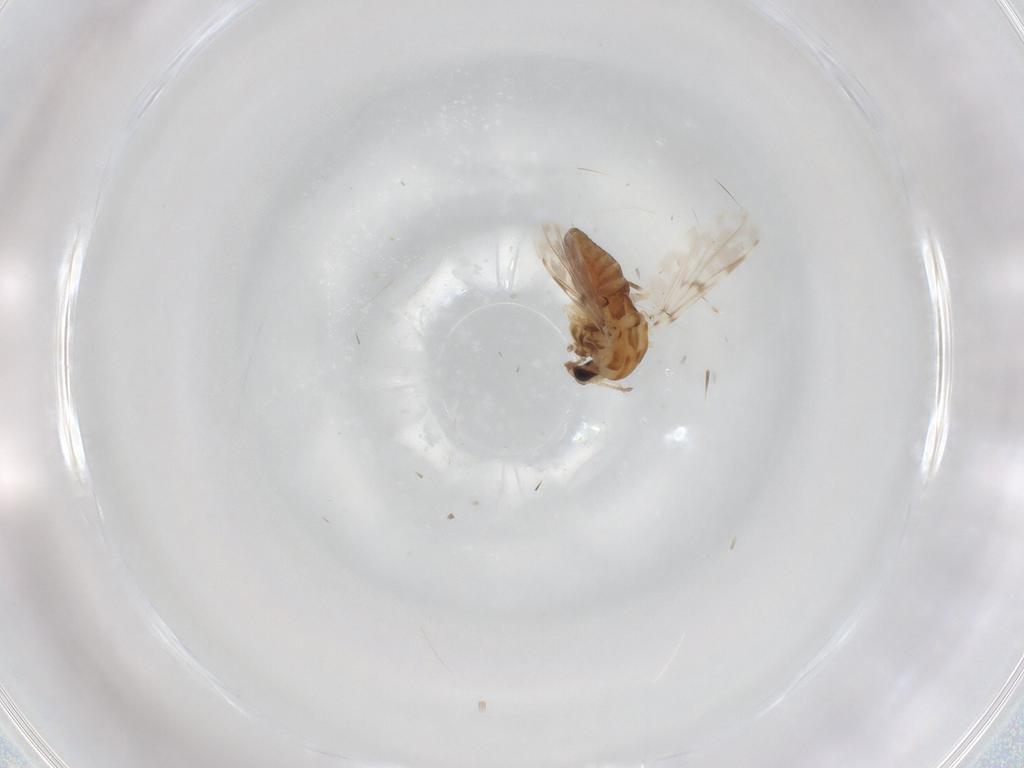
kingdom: Animalia
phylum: Arthropoda
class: Insecta
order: Diptera
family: Chironomidae
